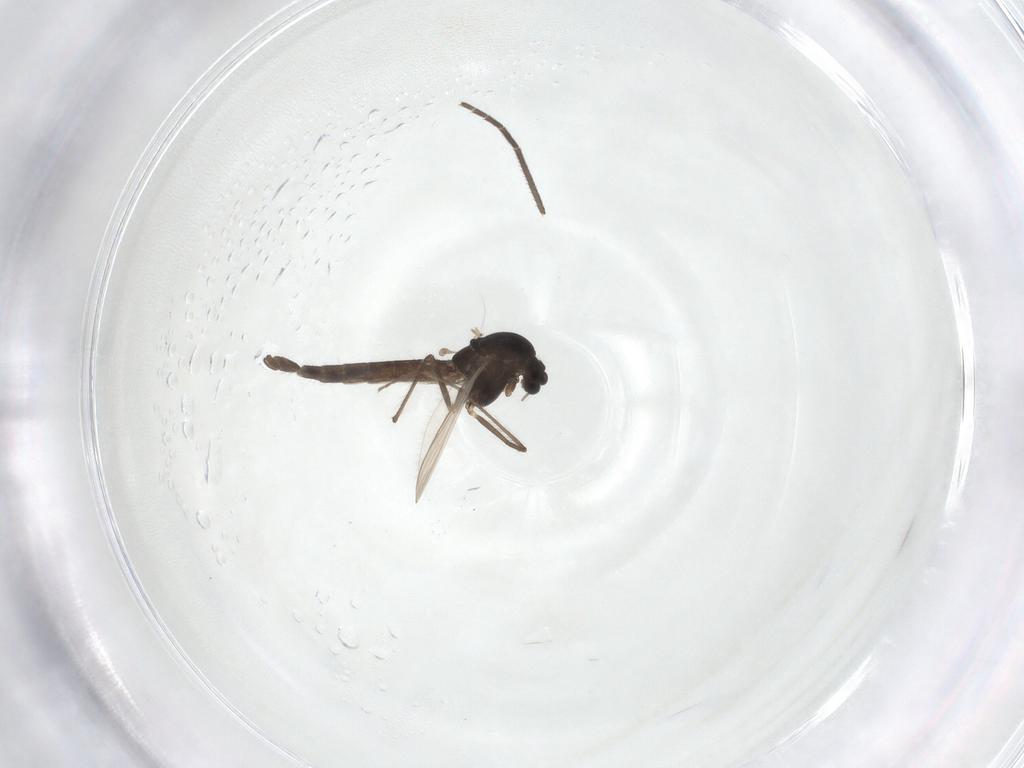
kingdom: Animalia
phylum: Arthropoda
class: Insecta
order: Diptera
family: Chironomidae
